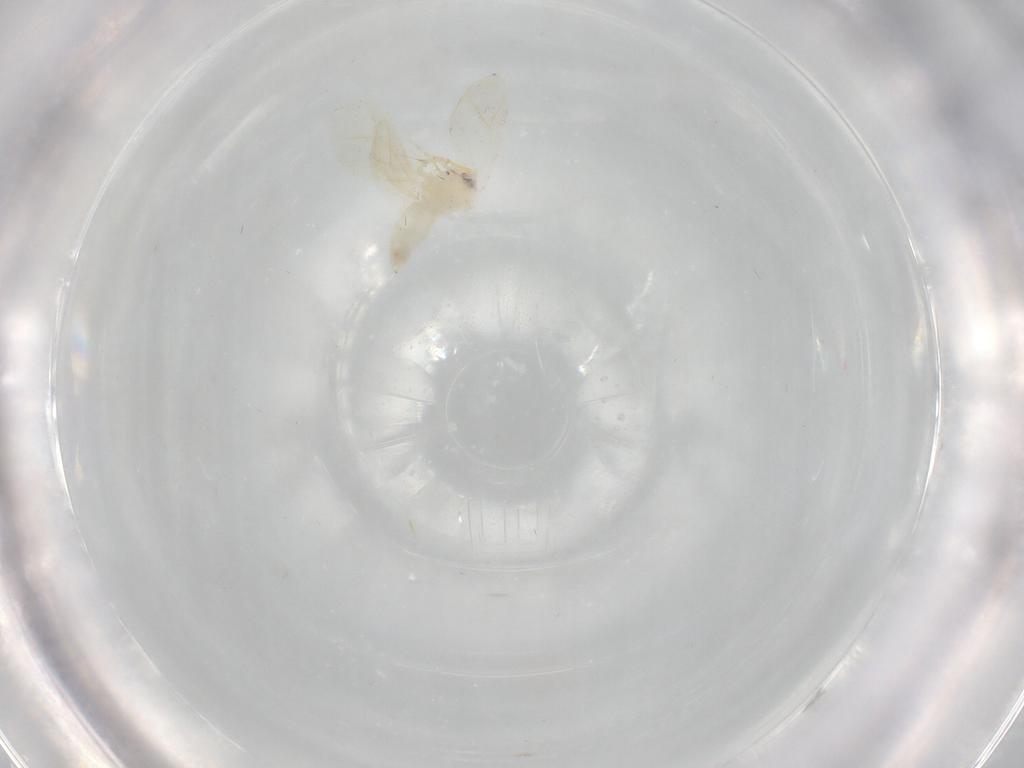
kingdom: Animalia
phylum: Arthropoda
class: Insecta
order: Hemiptera
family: Aleyrodidae
